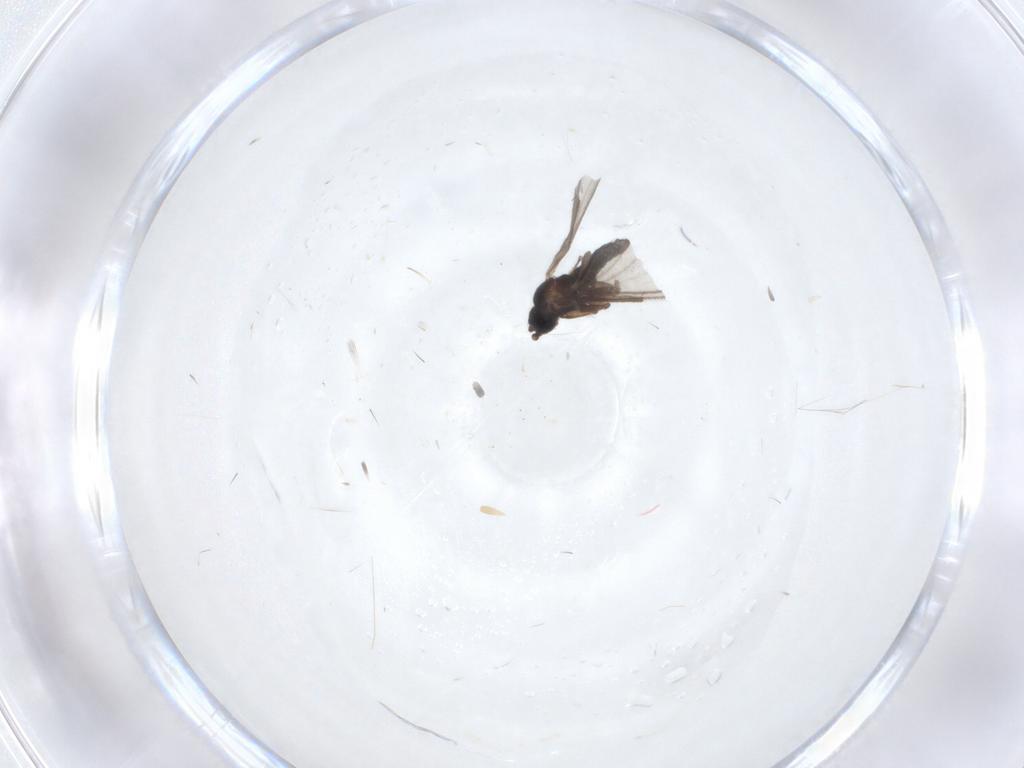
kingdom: Animalia
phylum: Arthropoda
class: Insecta
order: Diptera
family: Sciaridae
